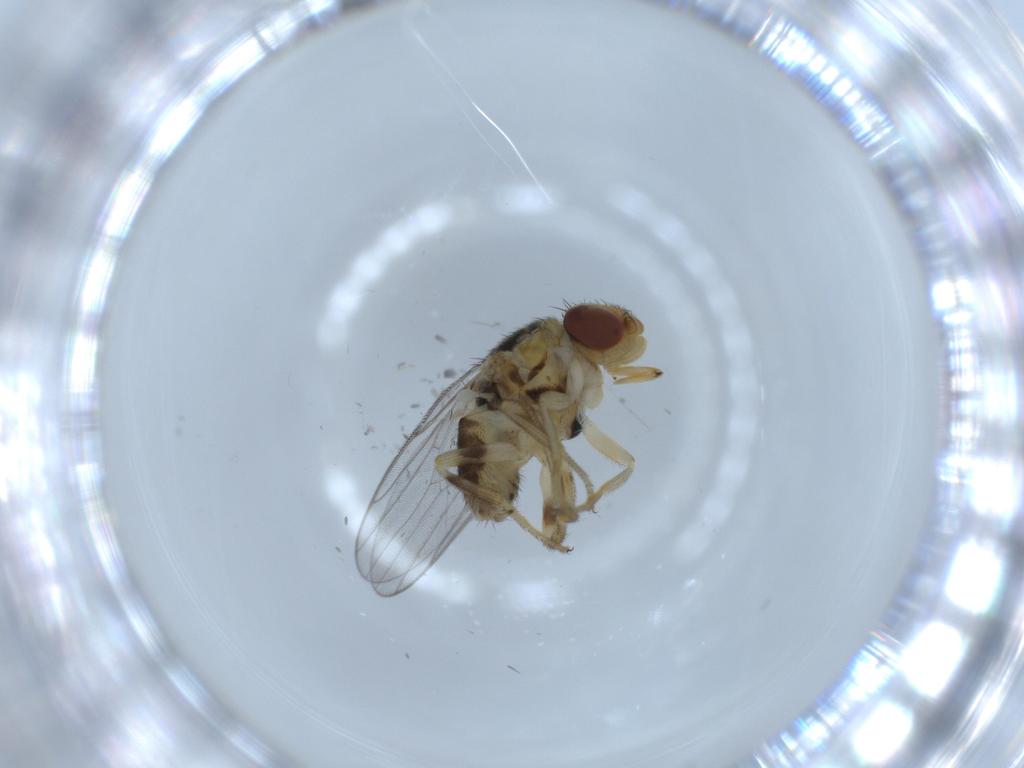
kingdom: Animalia
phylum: Arthropoda
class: Insecta
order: Diptera
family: Chloropidae
